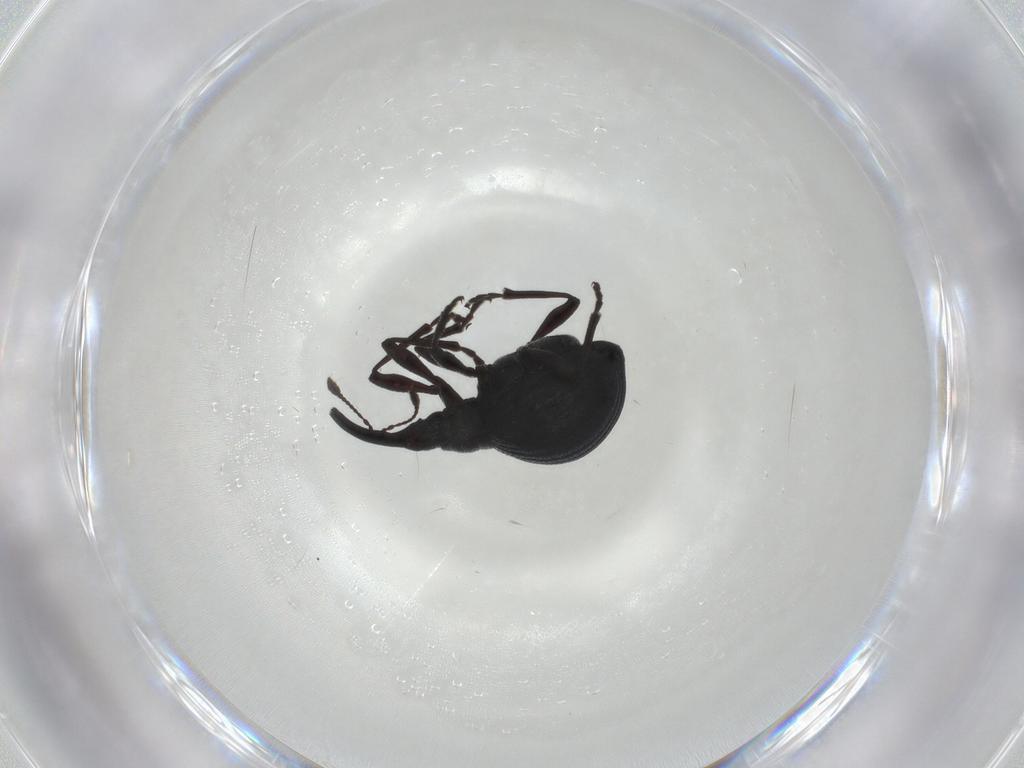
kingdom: Animalia
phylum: Arthropoda
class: Insecta
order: Coleoptera
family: Brentidae
